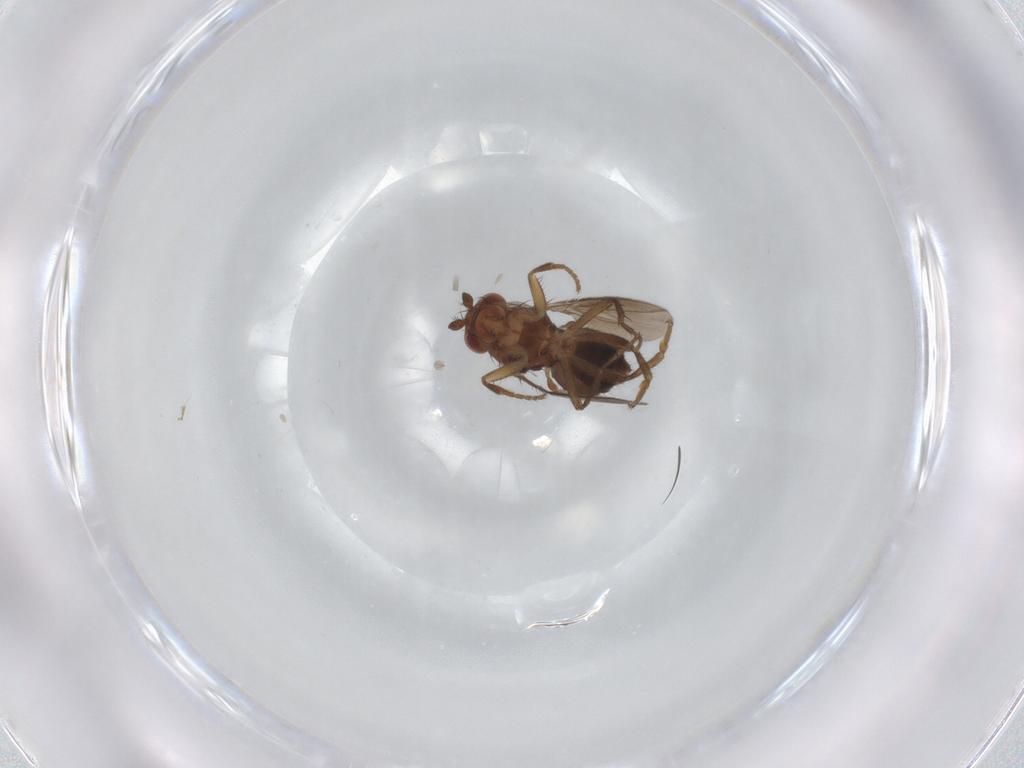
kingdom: Animalia
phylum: Arthropoda
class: Insecta
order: Diptera
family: Sphaeroceridae
